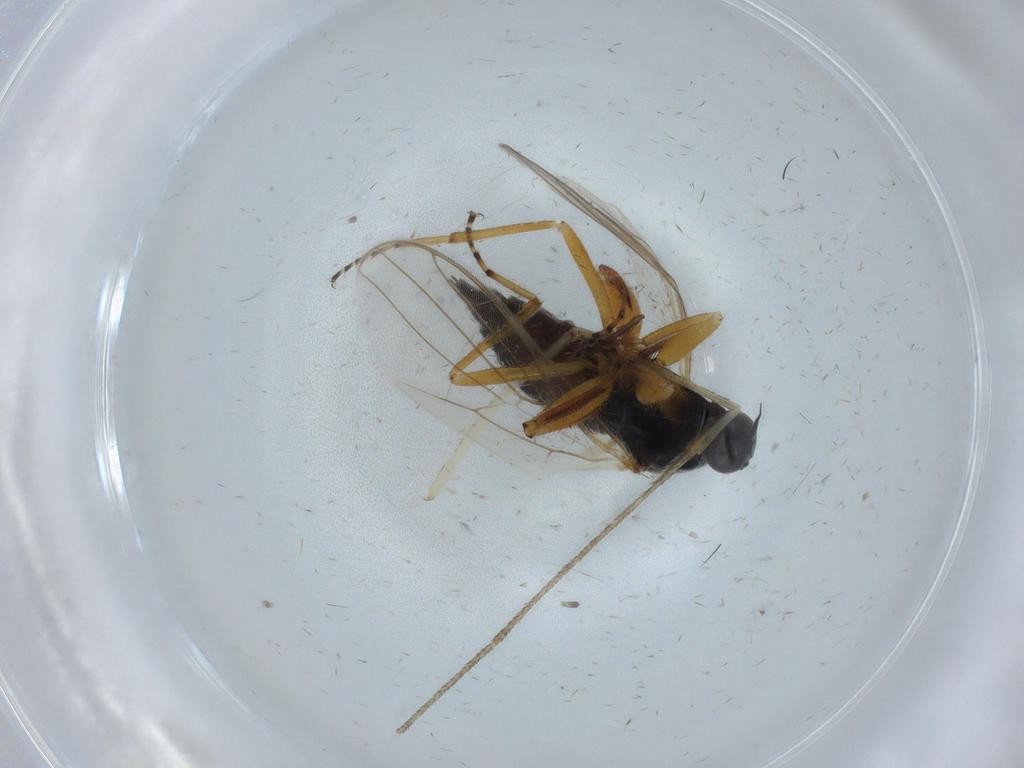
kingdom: Animalia
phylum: Arthropoda
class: Insecta
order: Diptera
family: Hybotidae
